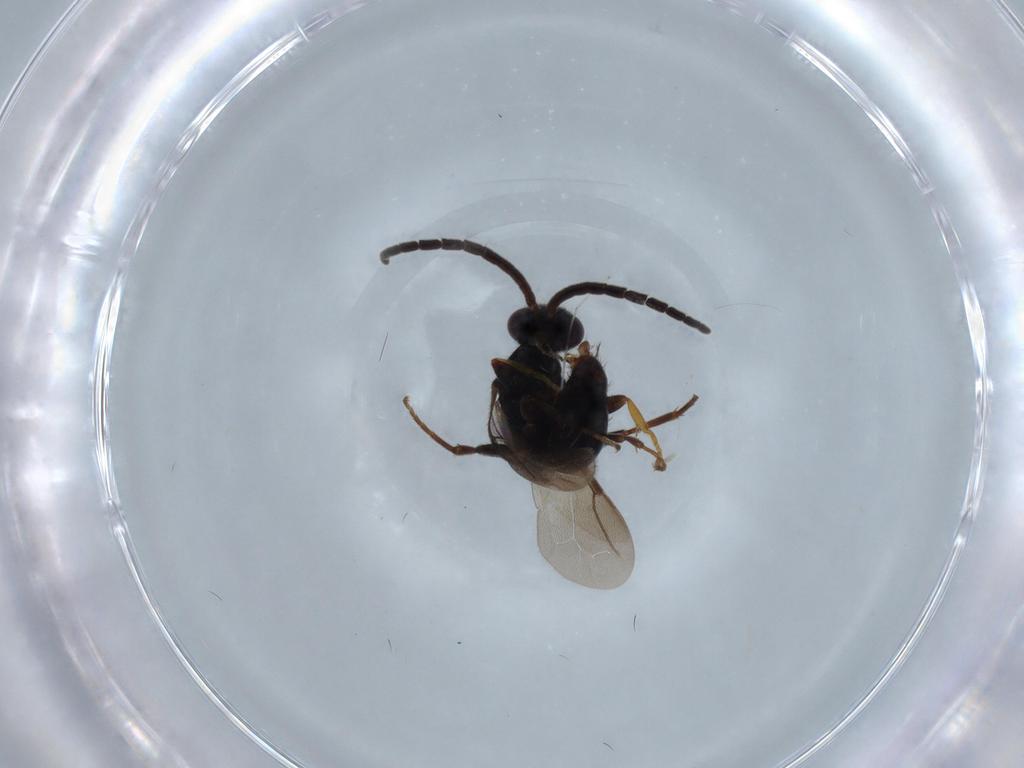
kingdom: Animalia
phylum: Arthropoda
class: Insecta
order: Hymenoptera
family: Bethylidae
